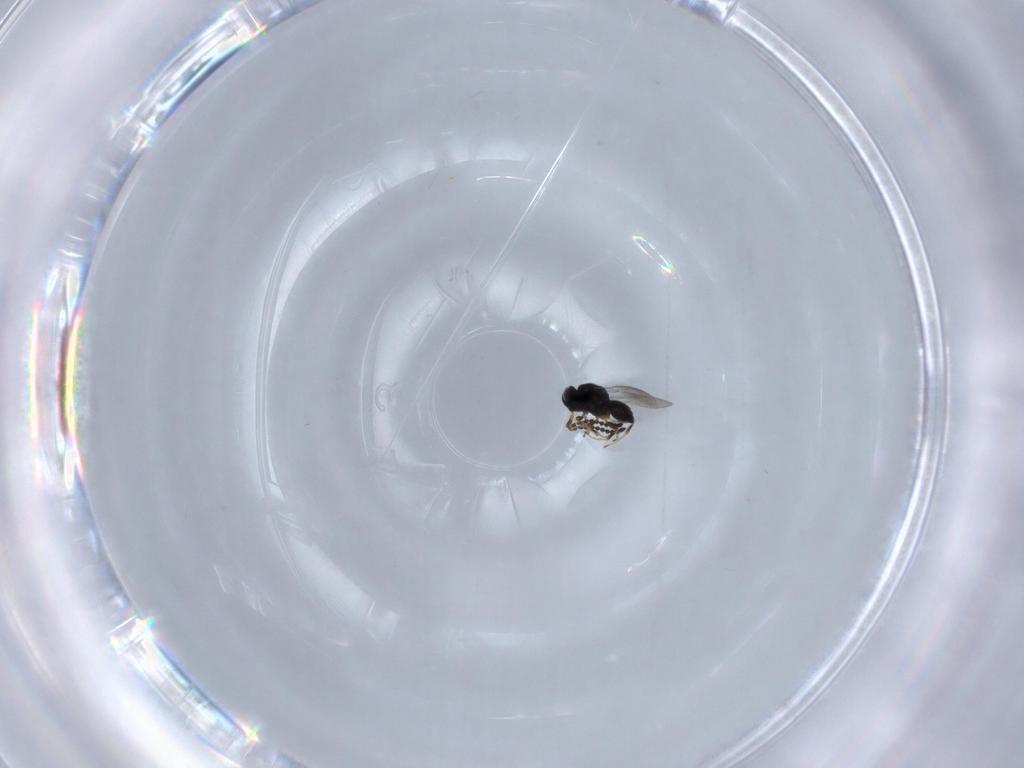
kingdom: Animalia
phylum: Arthropoda
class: Insecta
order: Hymenoptera
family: Scelionidae
